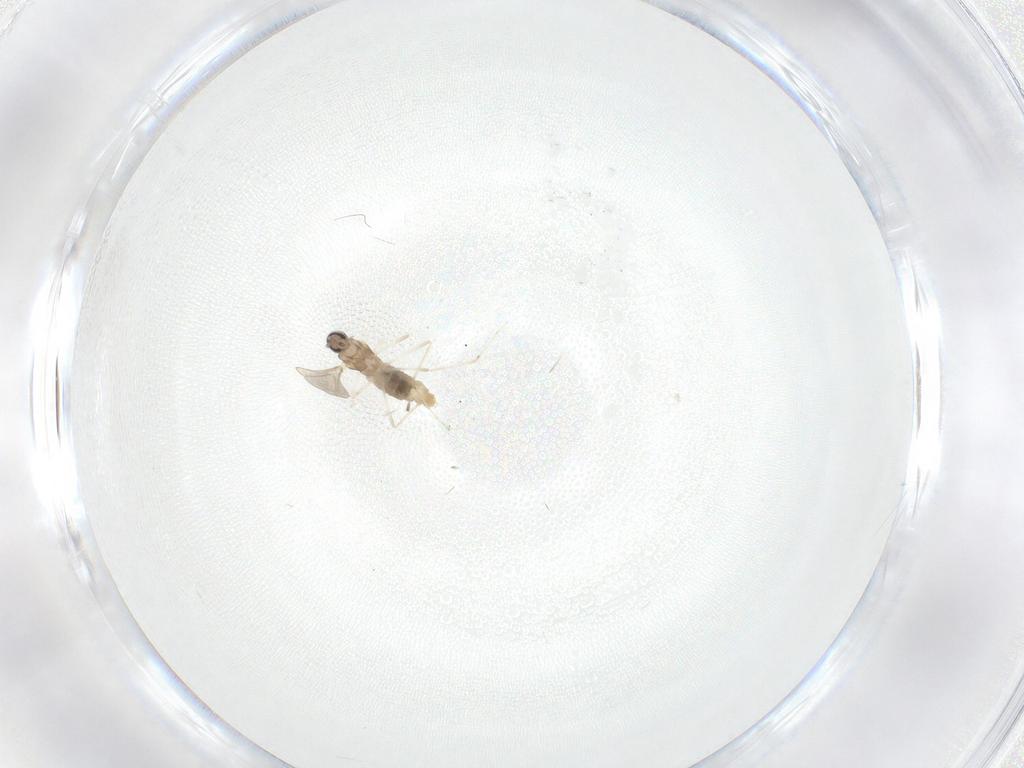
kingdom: Animalia
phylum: Arthropoda
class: Insecta
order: Diptera
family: Cecidomyiidae
